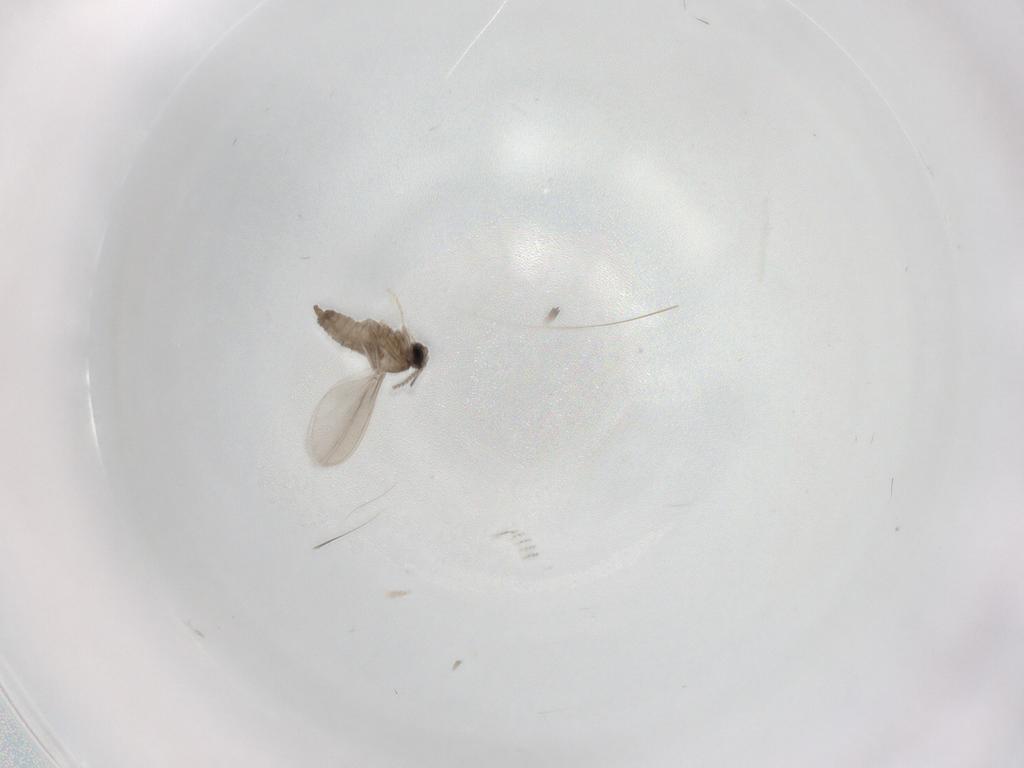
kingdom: Animalia
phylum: Arthropoda
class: Insecta
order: Diptera
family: Cecidomyiidae
